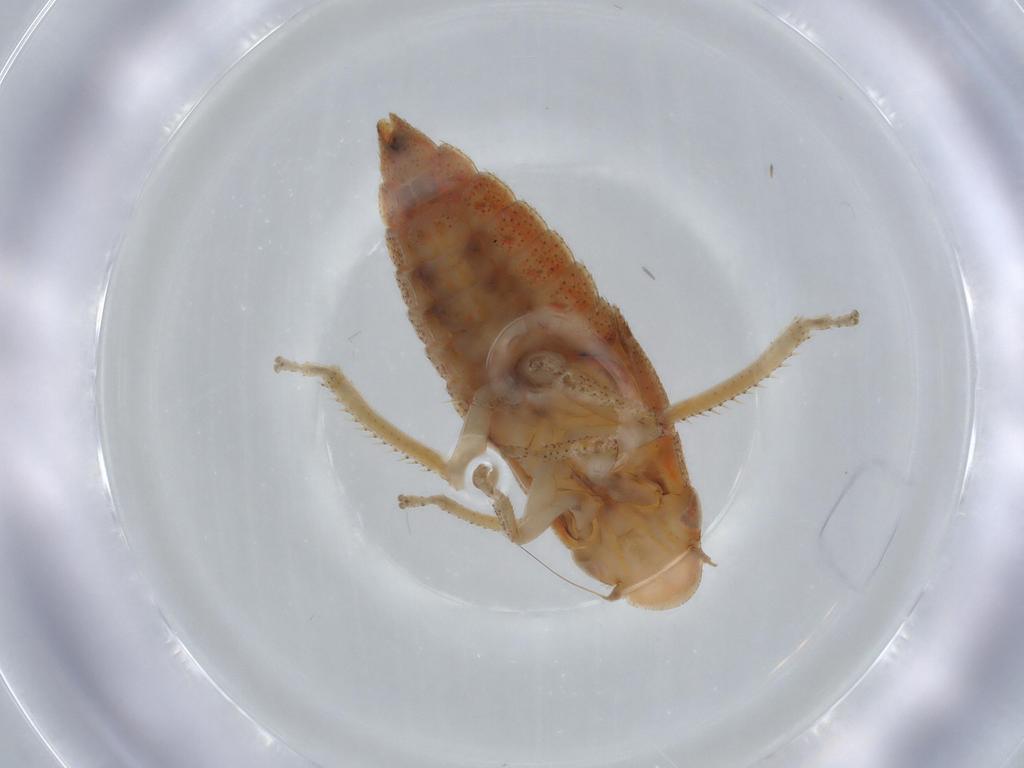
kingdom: Animalia
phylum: Arthropoda
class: Insecta
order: Hemiptera
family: Cicadellidae
